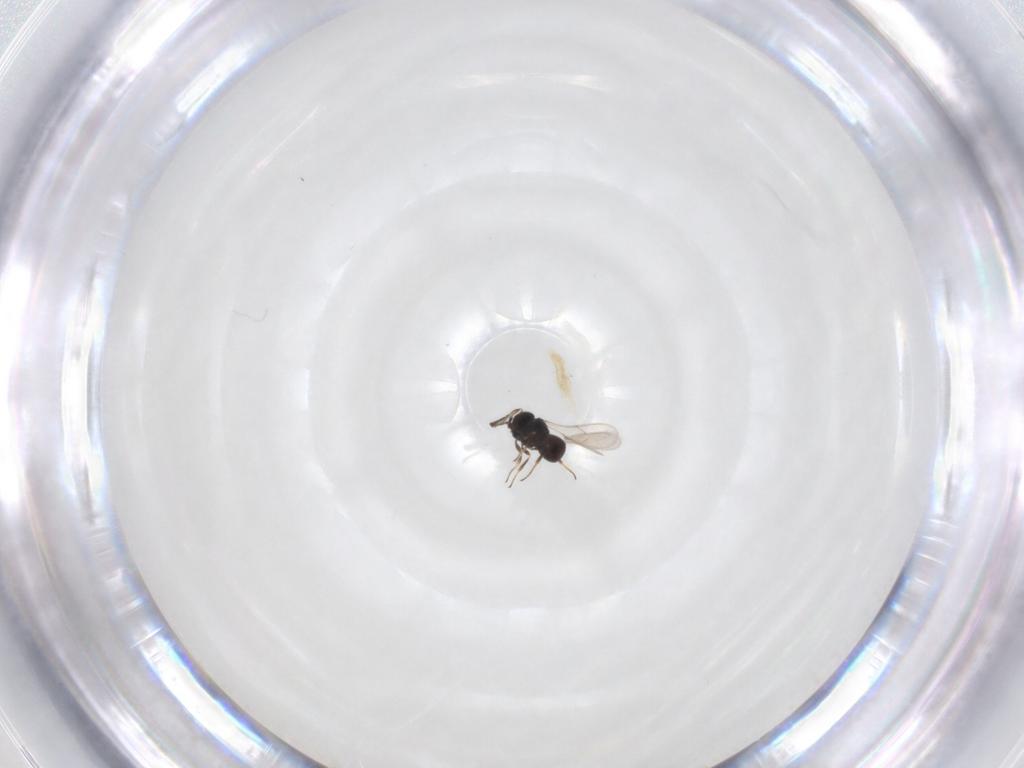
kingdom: Animalia
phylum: Arthropoda
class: Insecta
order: Hymenoptera
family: Scelionidae
